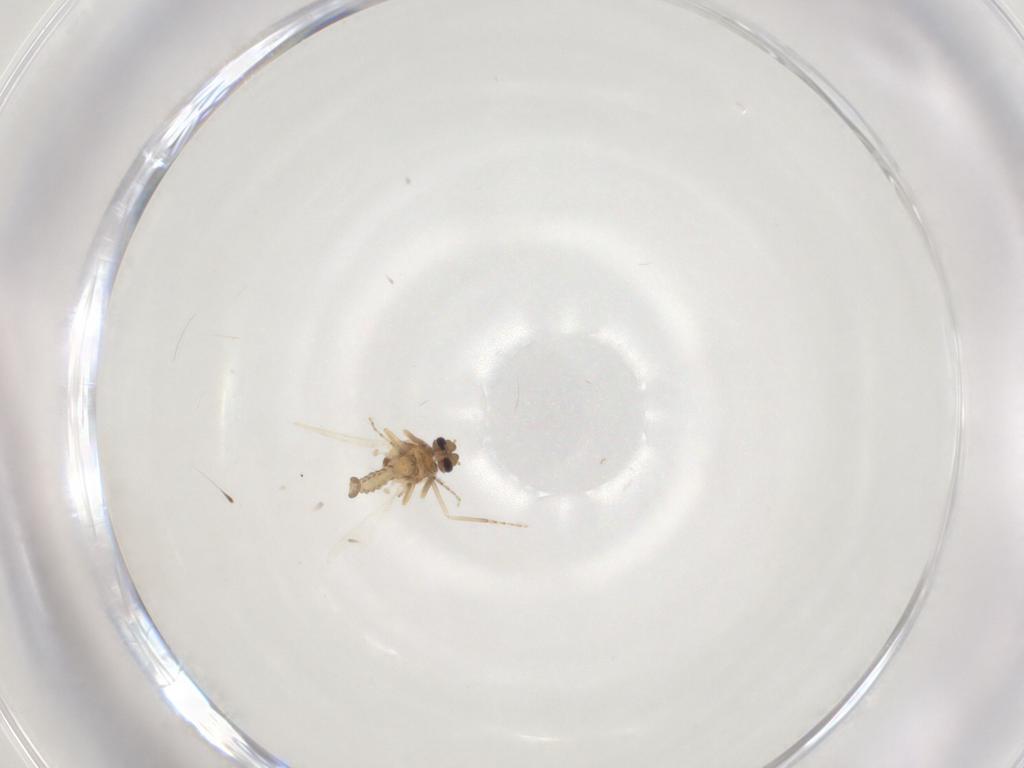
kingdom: Animalia
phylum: Arthropoda
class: Insecta
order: Diptera
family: Ceratopogonidae
